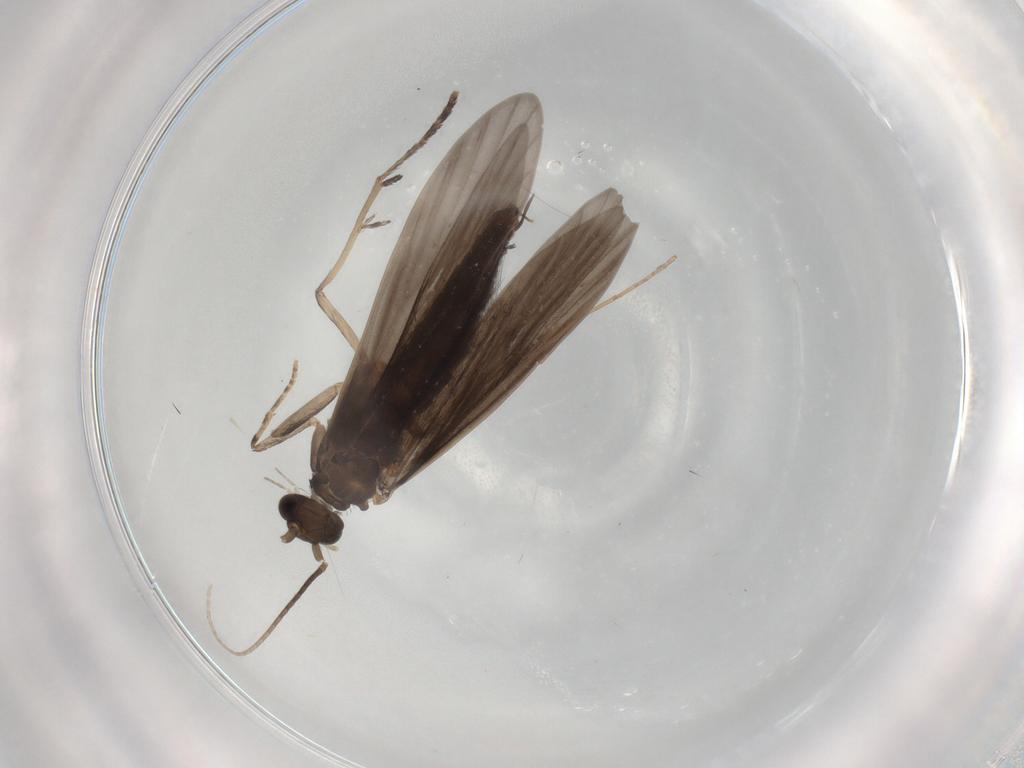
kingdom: Animalia
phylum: Arthropoda
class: Insecta
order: Trichoptera
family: Xiphocentronidae
